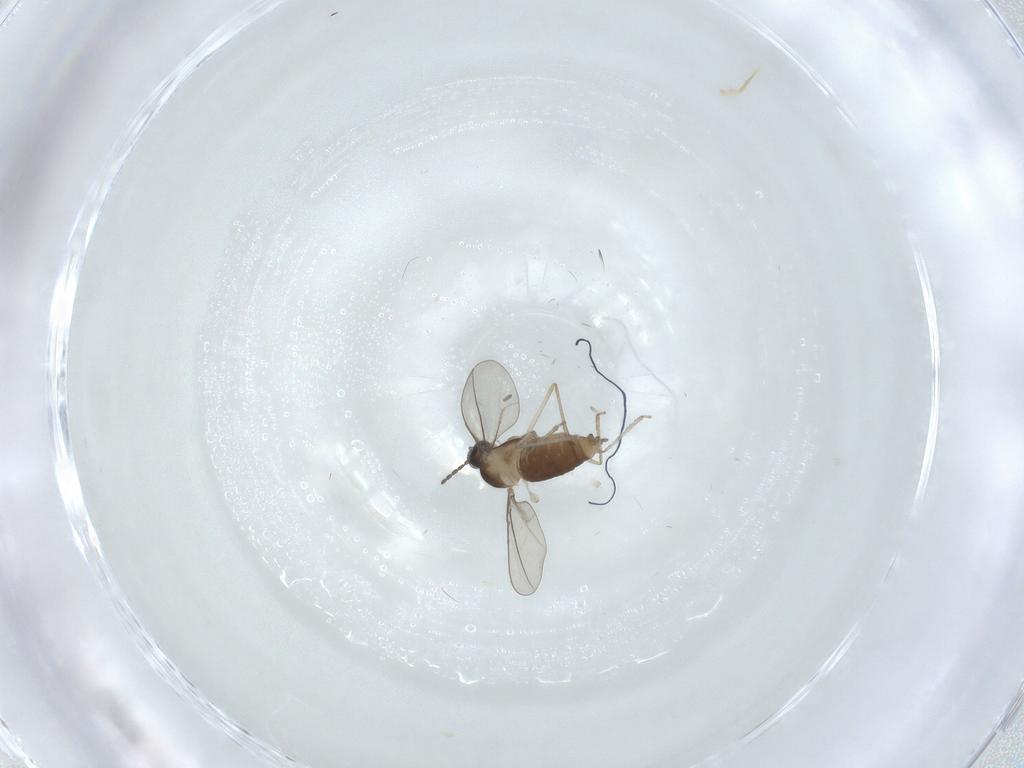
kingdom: Animalia
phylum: Arthropoda
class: Insecta
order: Diptera
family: Cecidomyiidae
